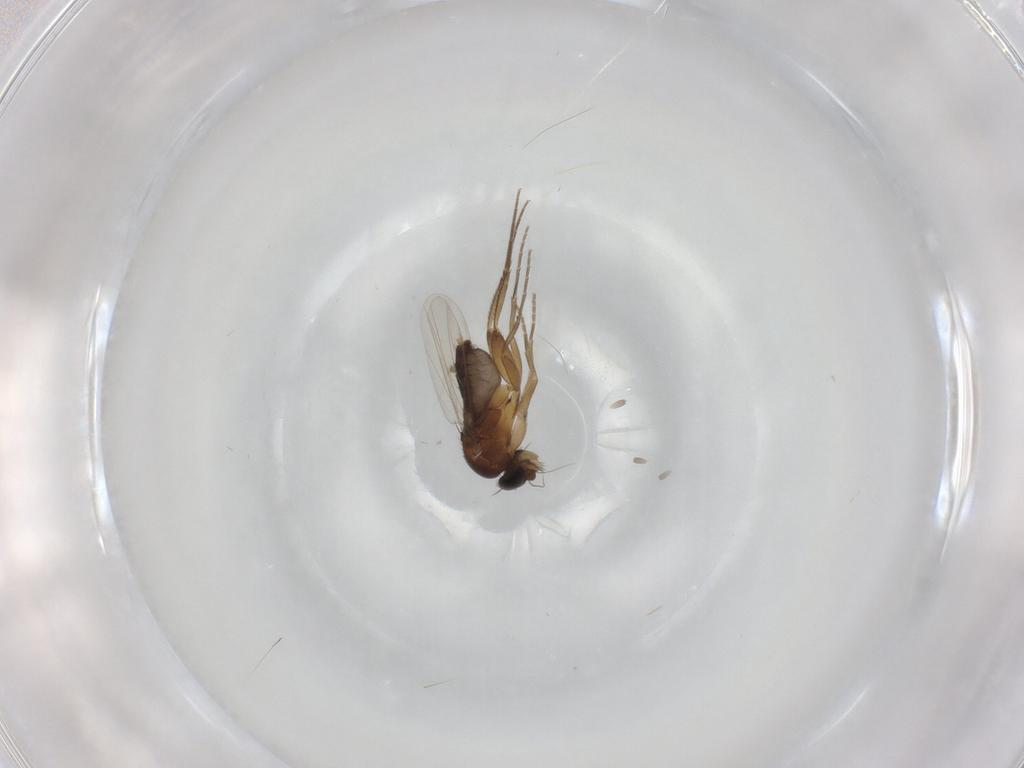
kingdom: Animalia
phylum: Arthropoda
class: Insecta
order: Diptera
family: Phoridae
